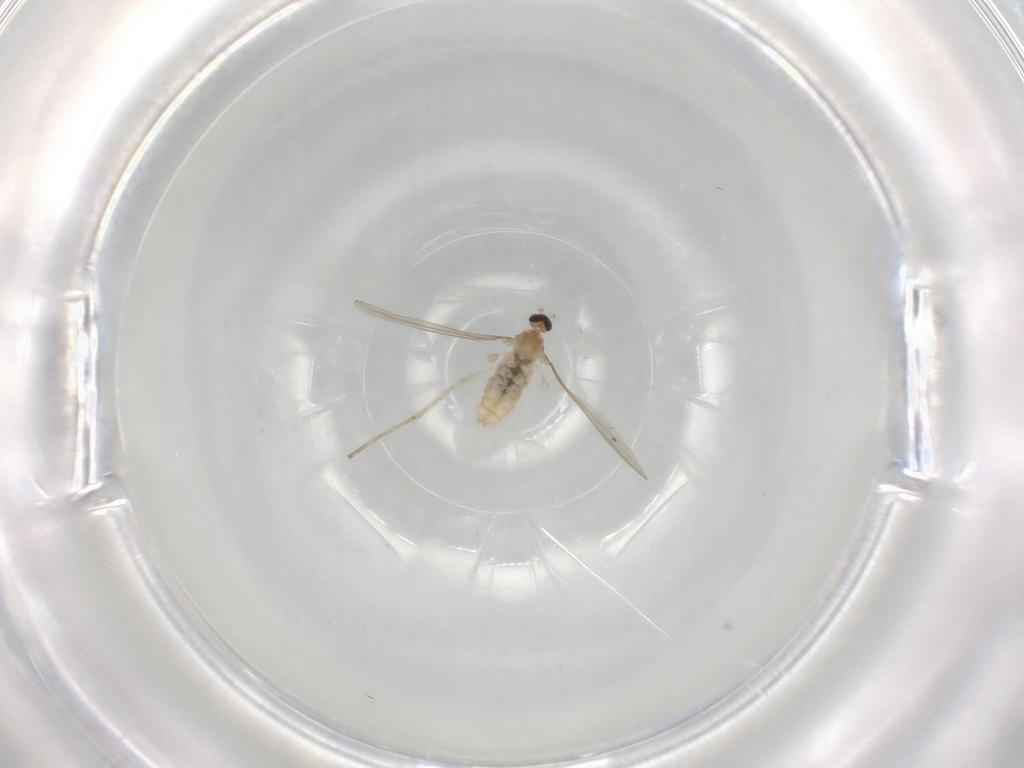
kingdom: Animalia
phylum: Arthropoda
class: Insecta
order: Diptera
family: Cecidomyiidae
